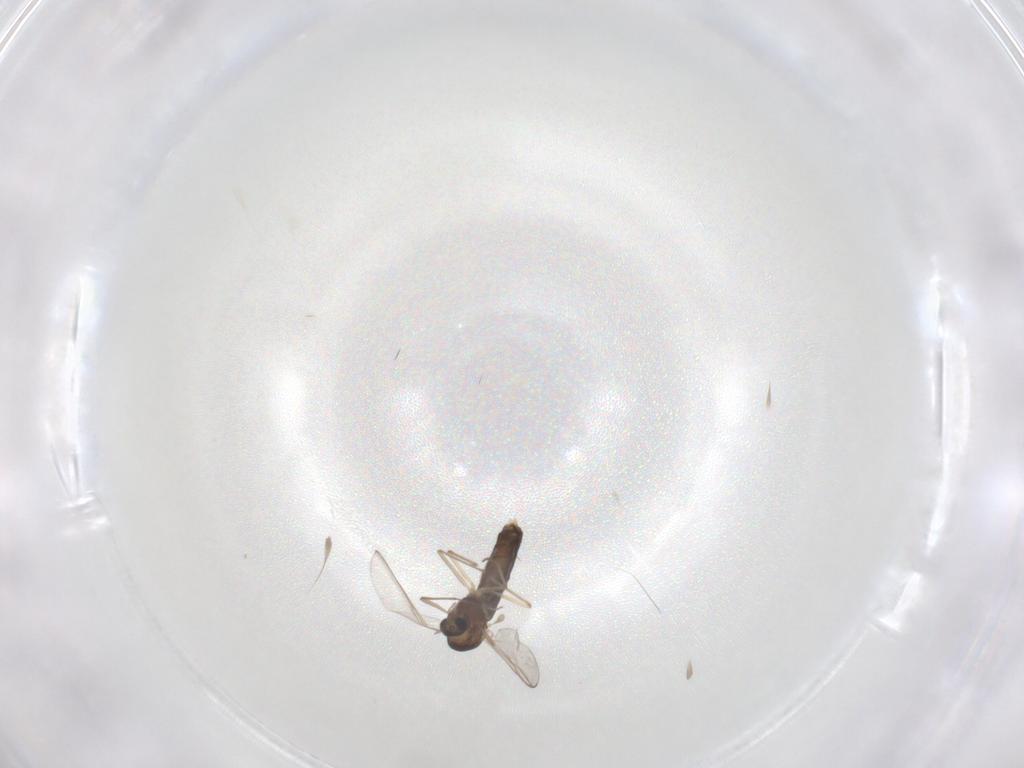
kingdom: Animalia
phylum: Arthropoda
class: Insecta
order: Diptera
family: Chironomidae
